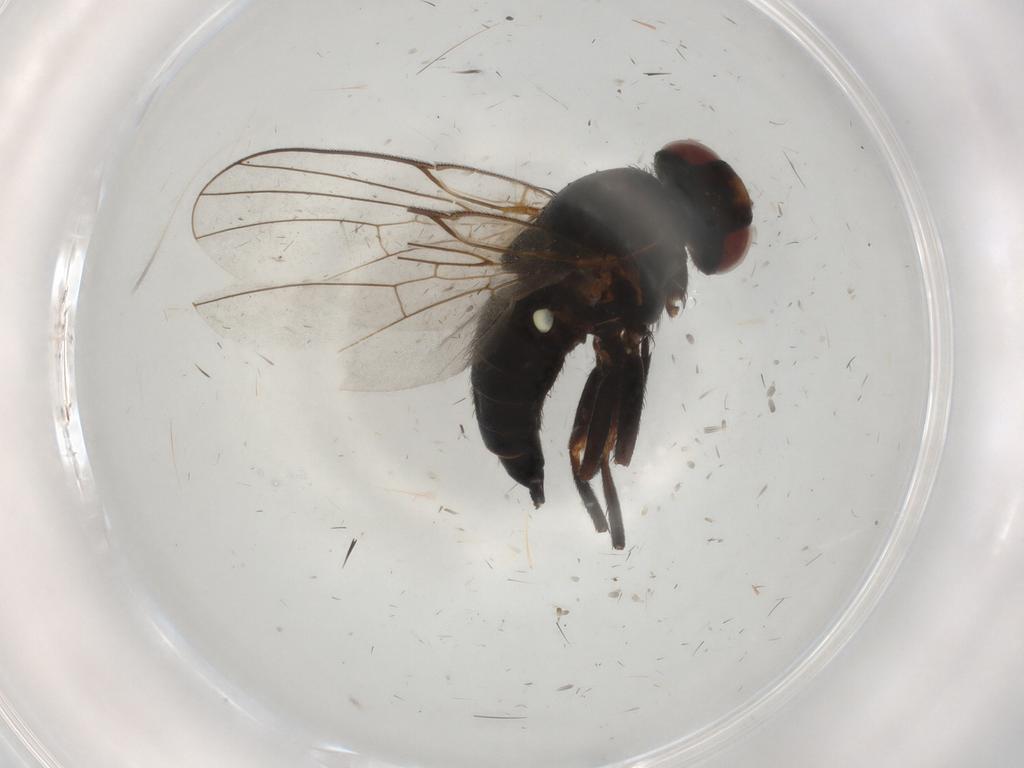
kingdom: Animalia
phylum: Arthropoda
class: Insecta
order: Diptera
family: Agromyzidae
